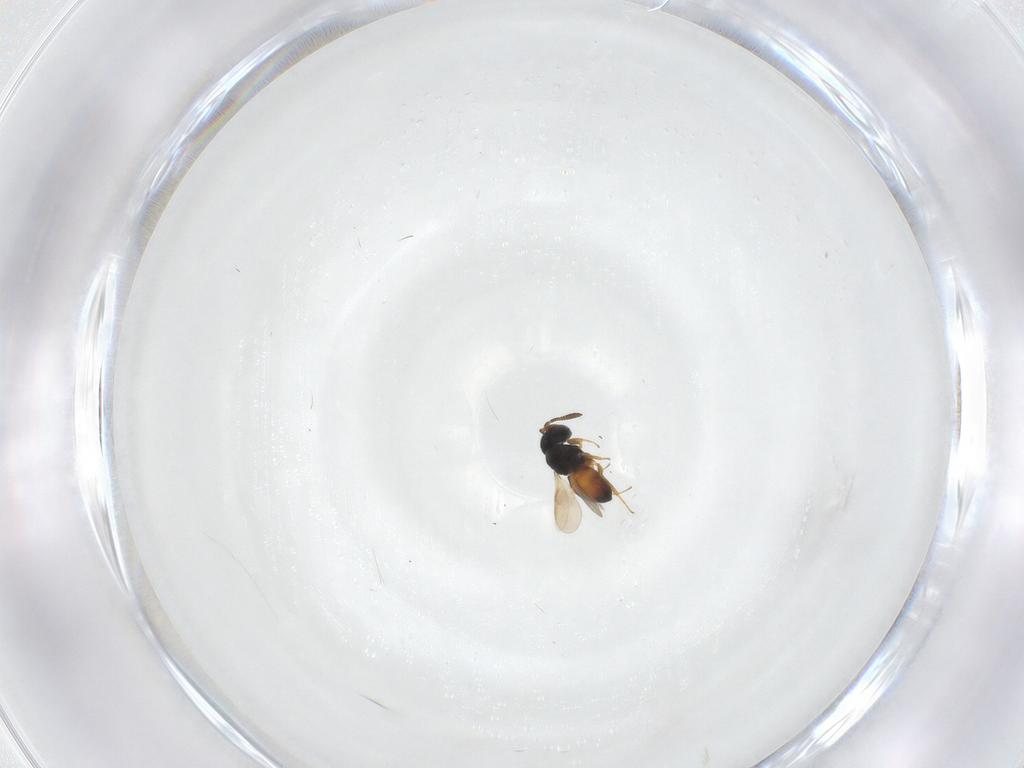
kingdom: Animalia
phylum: Arthropoda
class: Insecta
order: Hymenoptera
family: Scelionidae
